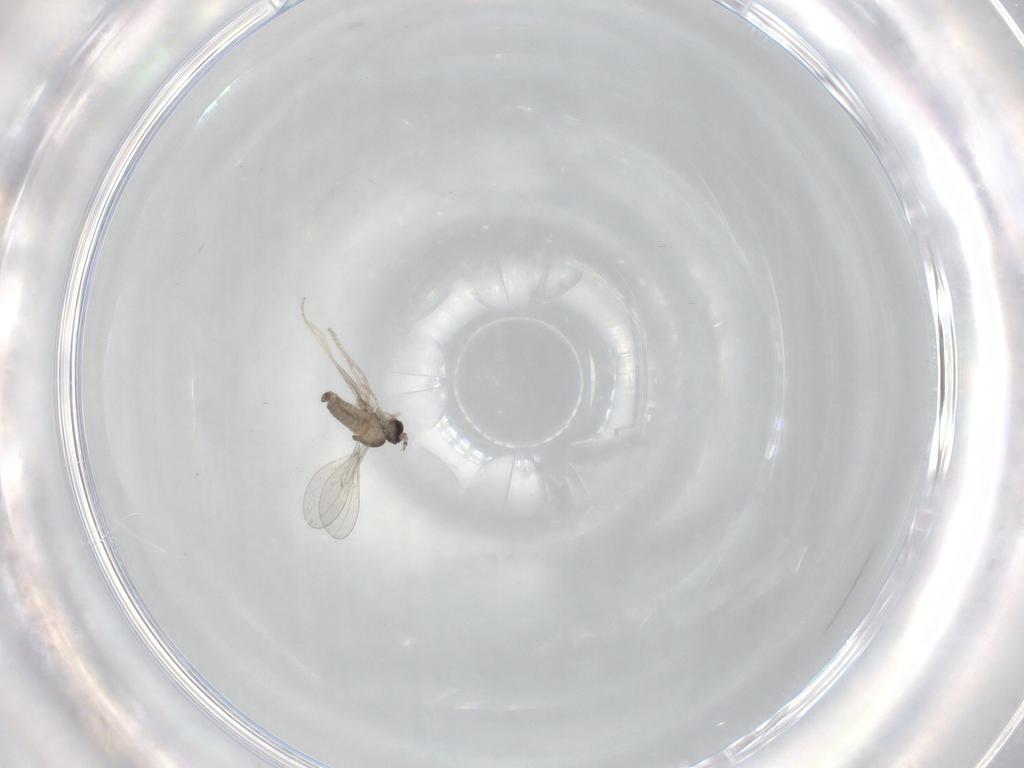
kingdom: Animalia
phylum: Arthropoda
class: Insecta
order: Diptera
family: Cecidomyiidae
